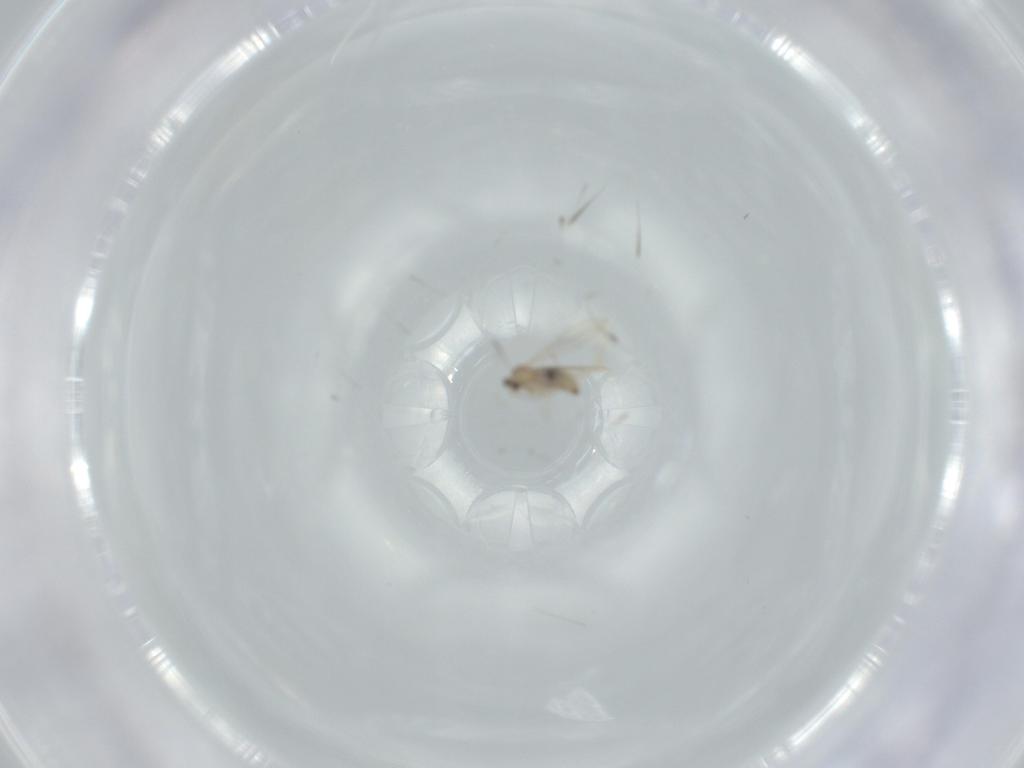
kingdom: Animalia
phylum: Arthropoda
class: Insecta
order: Diptera
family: Cecidomyiidae
